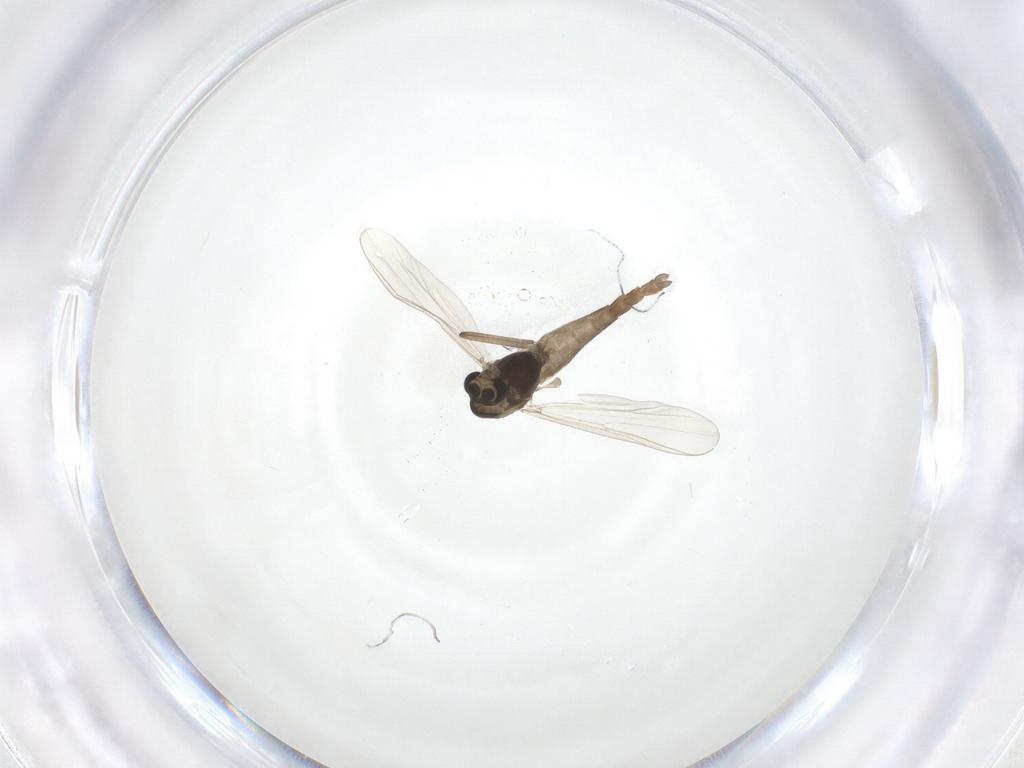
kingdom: Animalia
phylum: Arthropoda
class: Insecta
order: Diptera
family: Chironomidae
